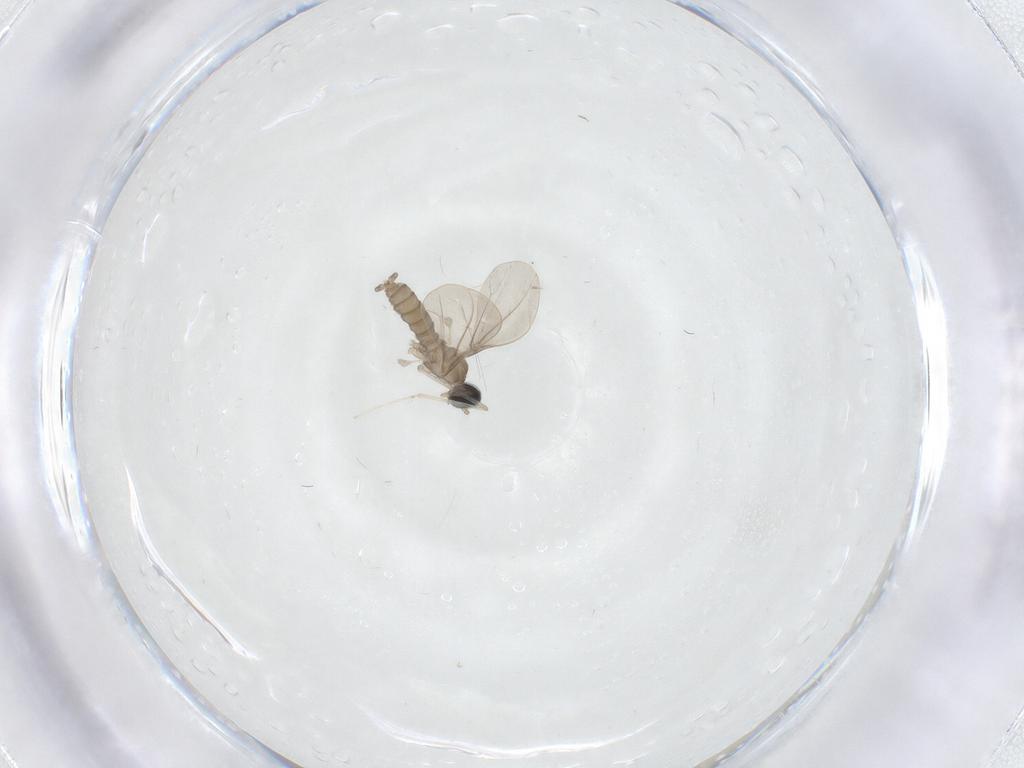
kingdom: Animalia
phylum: Arthropoda
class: Insecta
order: Diptera
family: Cecidomyiidae
